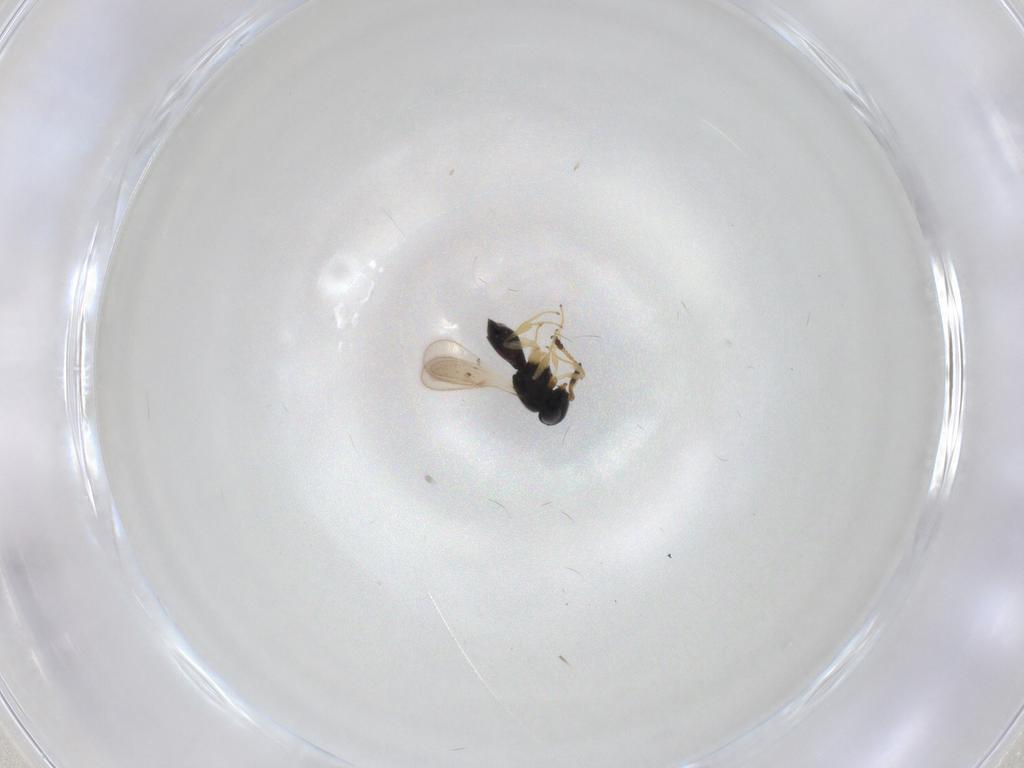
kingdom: Animalia
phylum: Arthropoda
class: Insecta
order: Hymenoptera
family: Scelionidae
